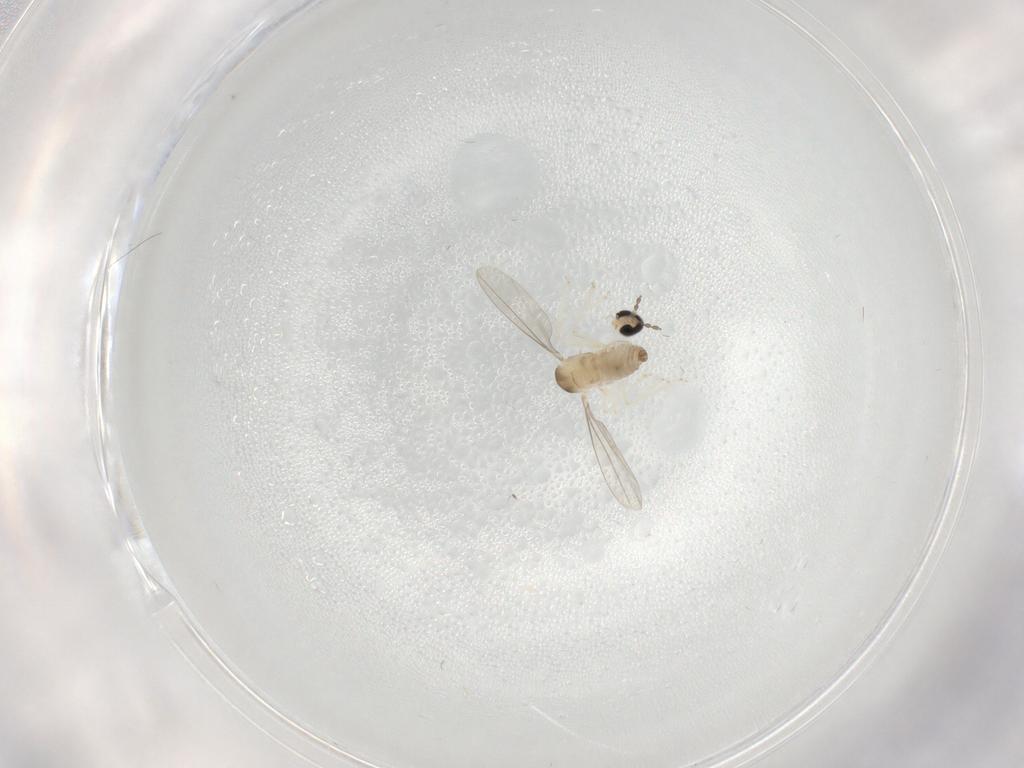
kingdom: Animalia
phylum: Arthropoda
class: Insecta
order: Diptera
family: Cecidomyiidae
